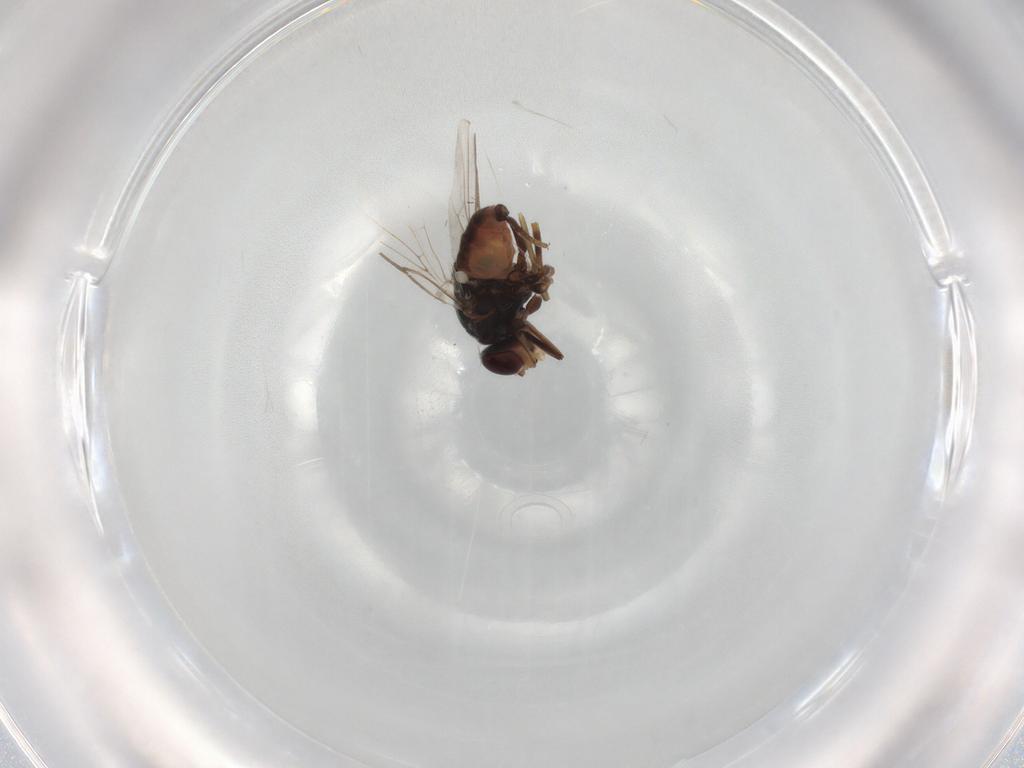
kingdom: Animalia
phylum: Arthropoda
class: Insecta
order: Diptera
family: Chloropidae
